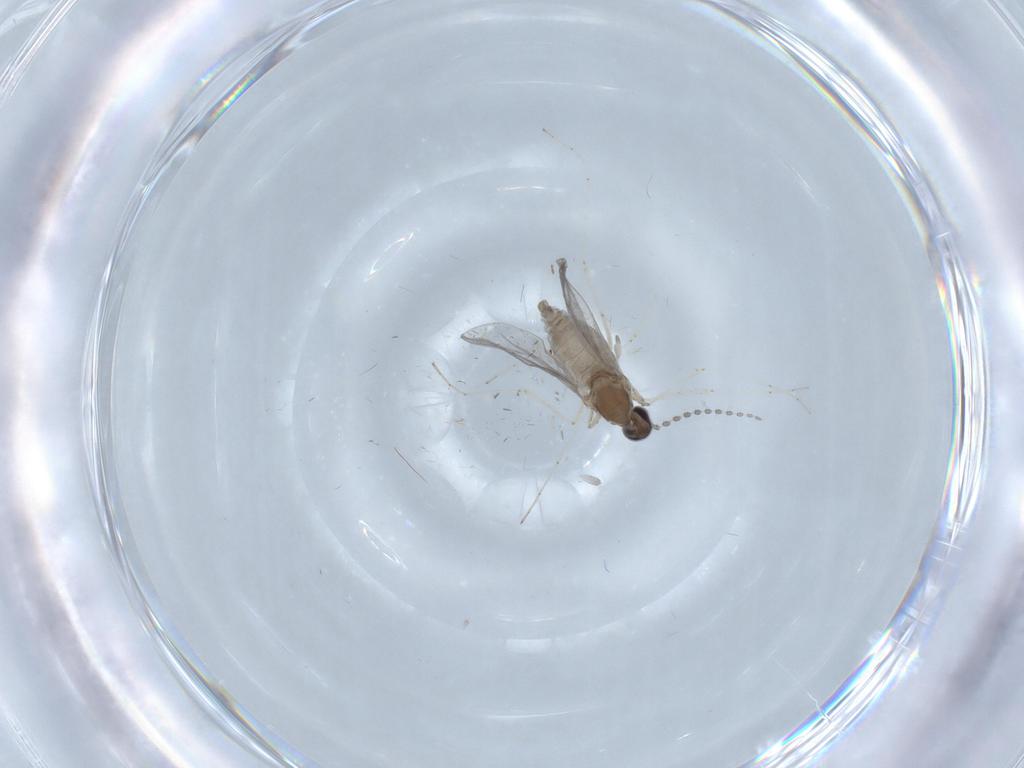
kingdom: Animalia
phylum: Arthropoda
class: Insecta
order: Diptera
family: Cecidomyiidae
